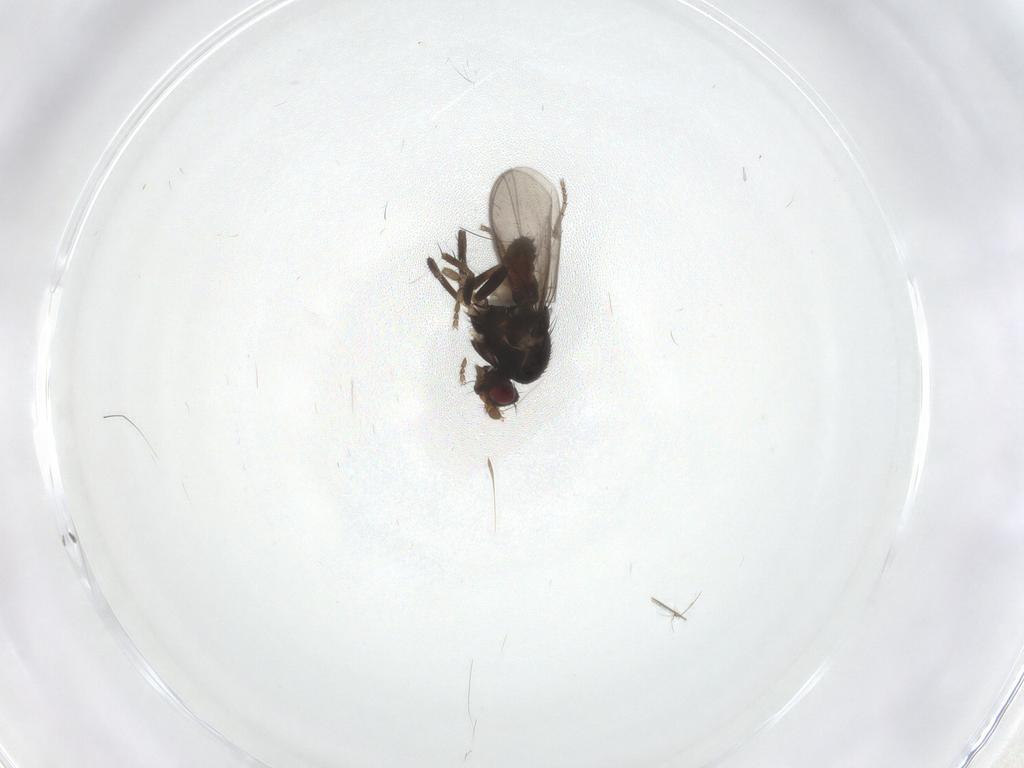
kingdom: Animalia
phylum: Arthropoda
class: Insecta
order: Diptera
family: Sphaeroceridae
